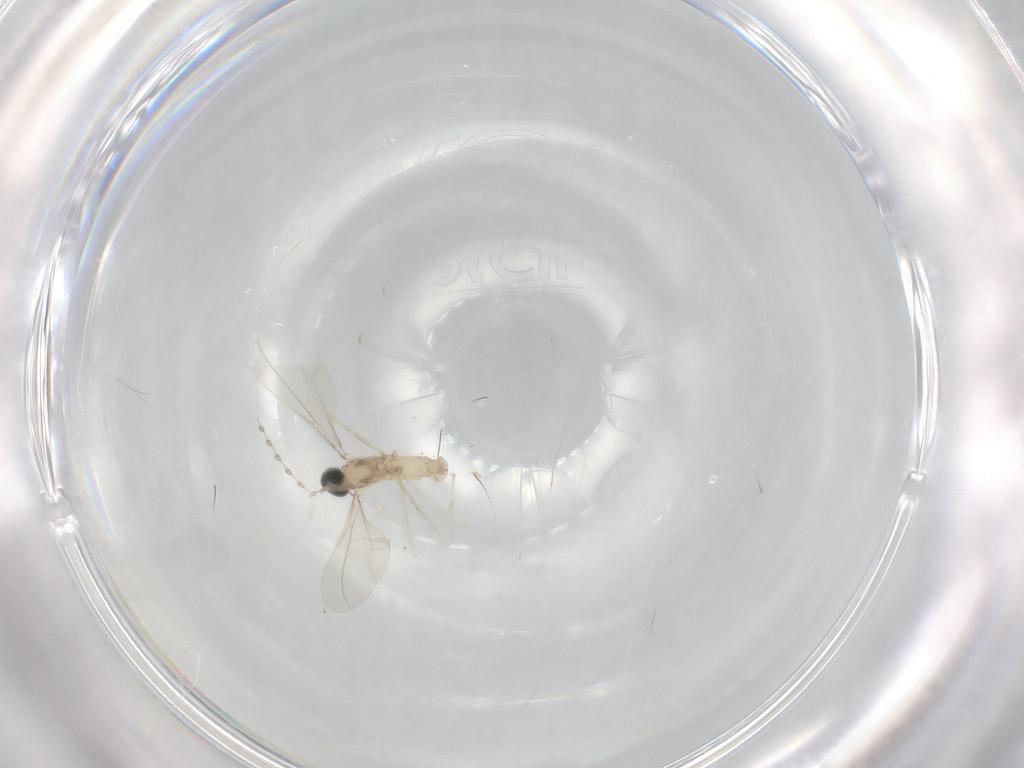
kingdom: Animalia
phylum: Arthropoda
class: Insecta
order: Diptera
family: Cecidomyiidae
